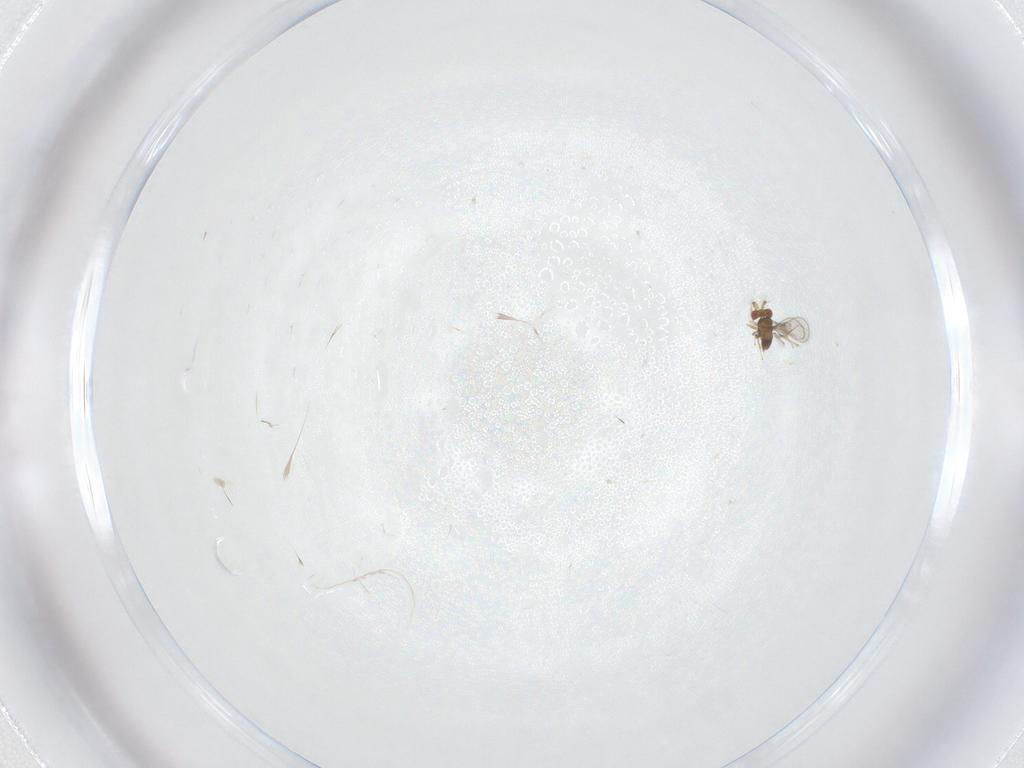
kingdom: Animalia
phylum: Arthropoda
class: Insecta
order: Hymenoptera
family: Trichogrammatidae
